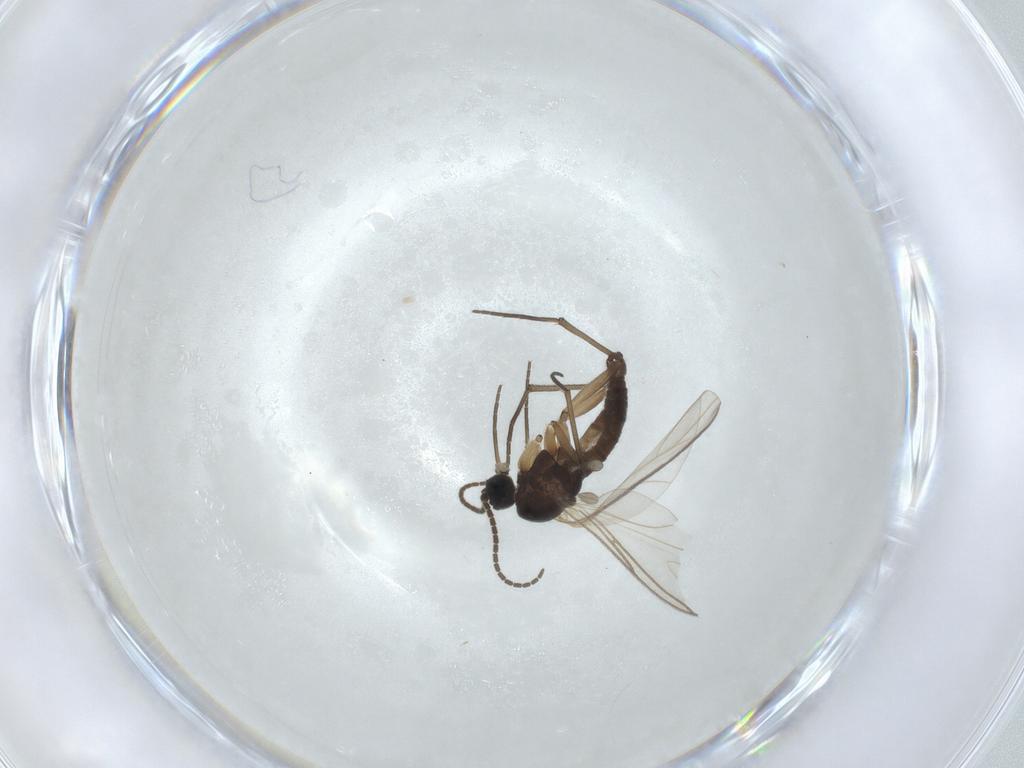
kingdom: Animalia
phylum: Arthropoda
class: Insecta
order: Diptera
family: Sciaridae
